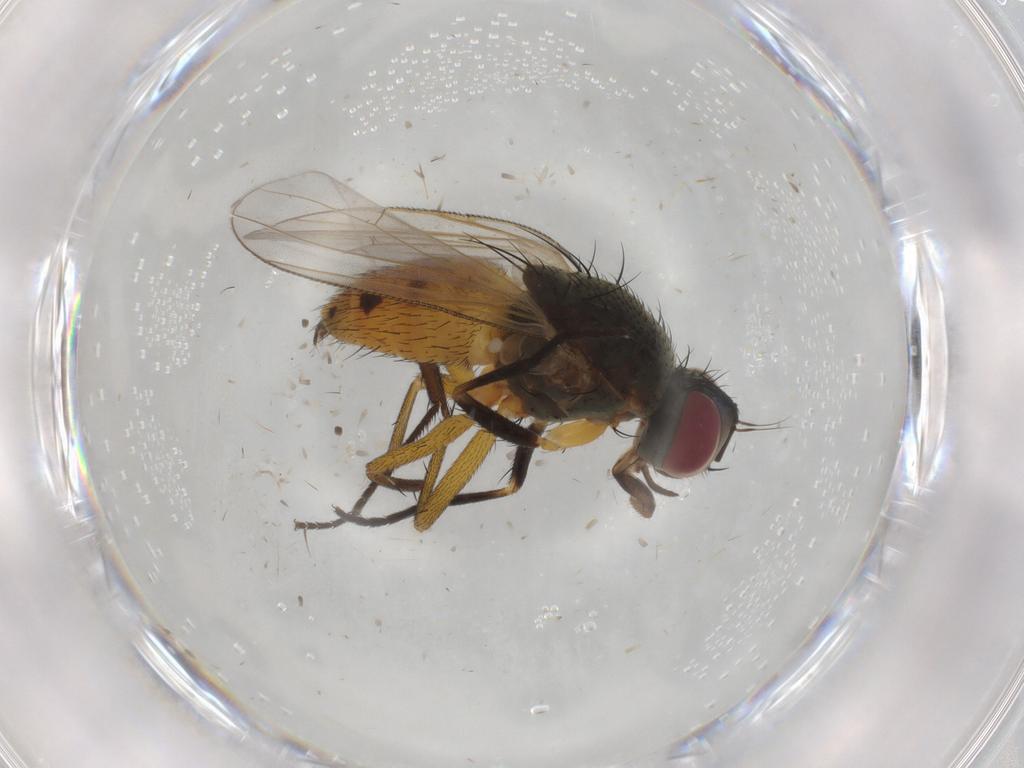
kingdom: Animalia
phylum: Arthropoda
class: Insecta
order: Diptera
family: Muscidae
